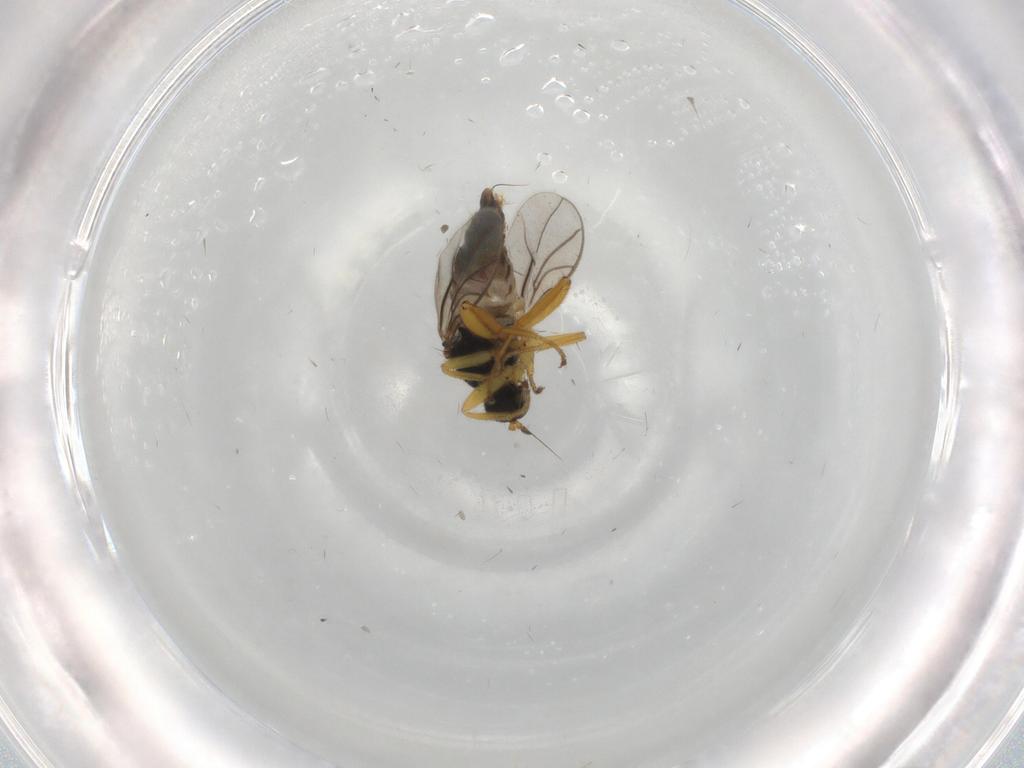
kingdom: Animalia
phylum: Arthropoda
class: Insecta
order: Diptera
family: Hybotidae
